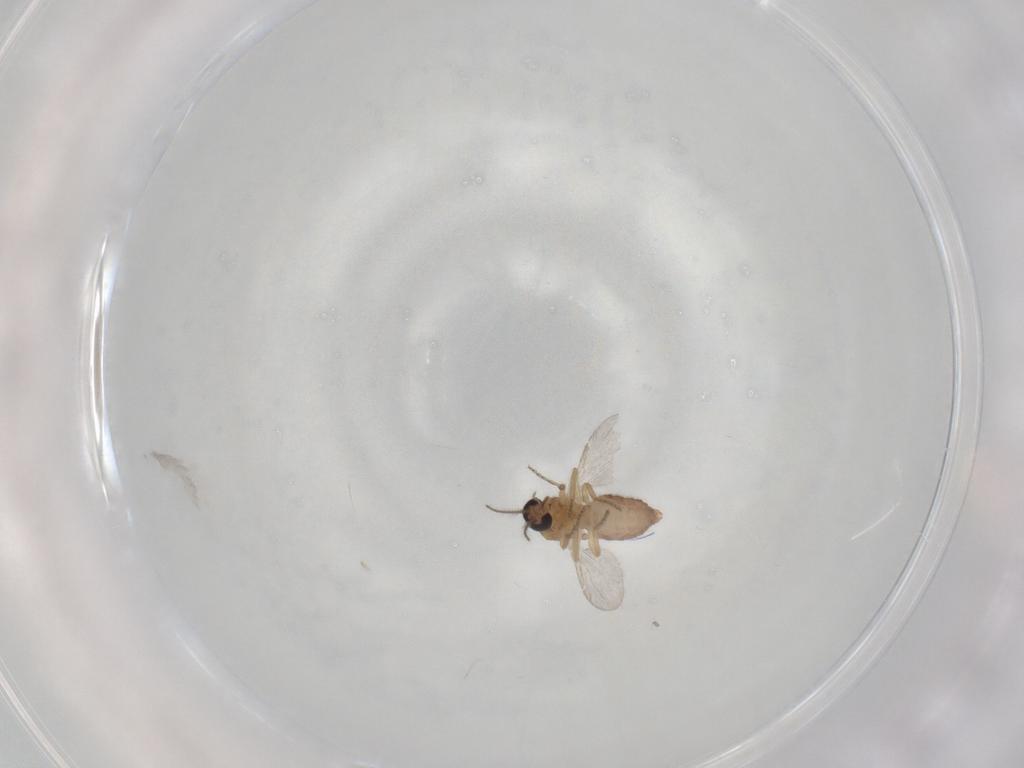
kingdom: Animalia
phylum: Arthropoda
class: Insecta
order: Diptera
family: Ceratopogonidae
